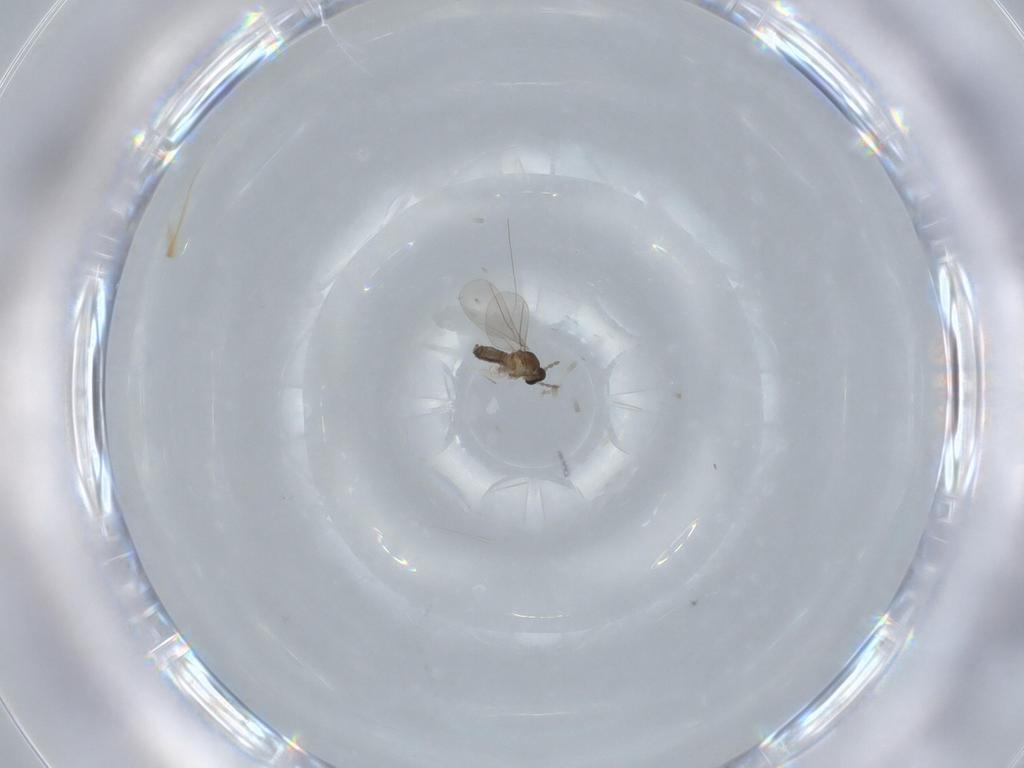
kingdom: Animalia
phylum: Arthropoda
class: Insecta
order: Diptera
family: Cecidomyiidae
